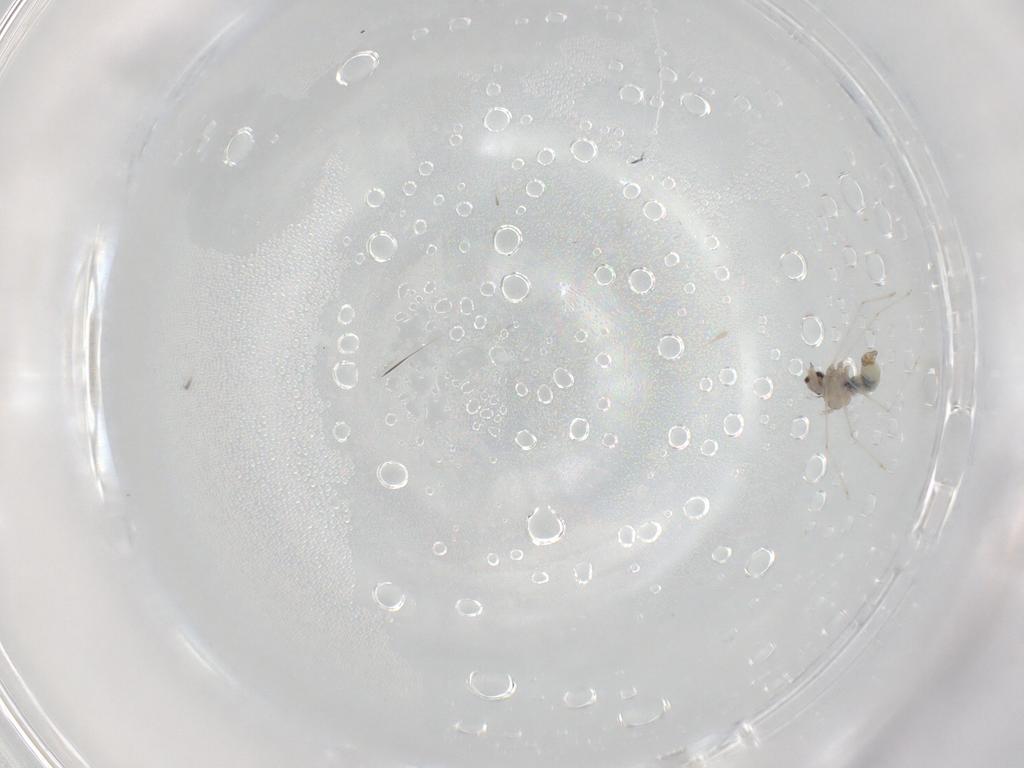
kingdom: Animalia
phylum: Arthropoda
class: Insecta
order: Diptera
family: Cecidomyiidae
